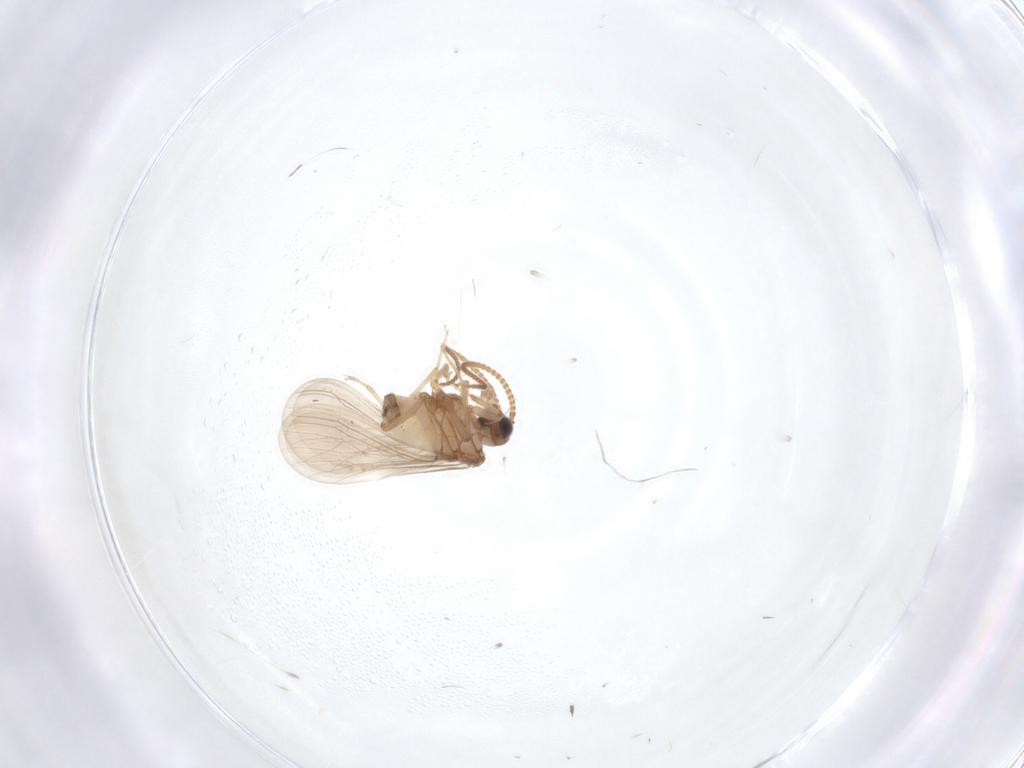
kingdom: Animalia
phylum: Arthropoda
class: Insecta
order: Neuroptera
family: Coniopterygidae
